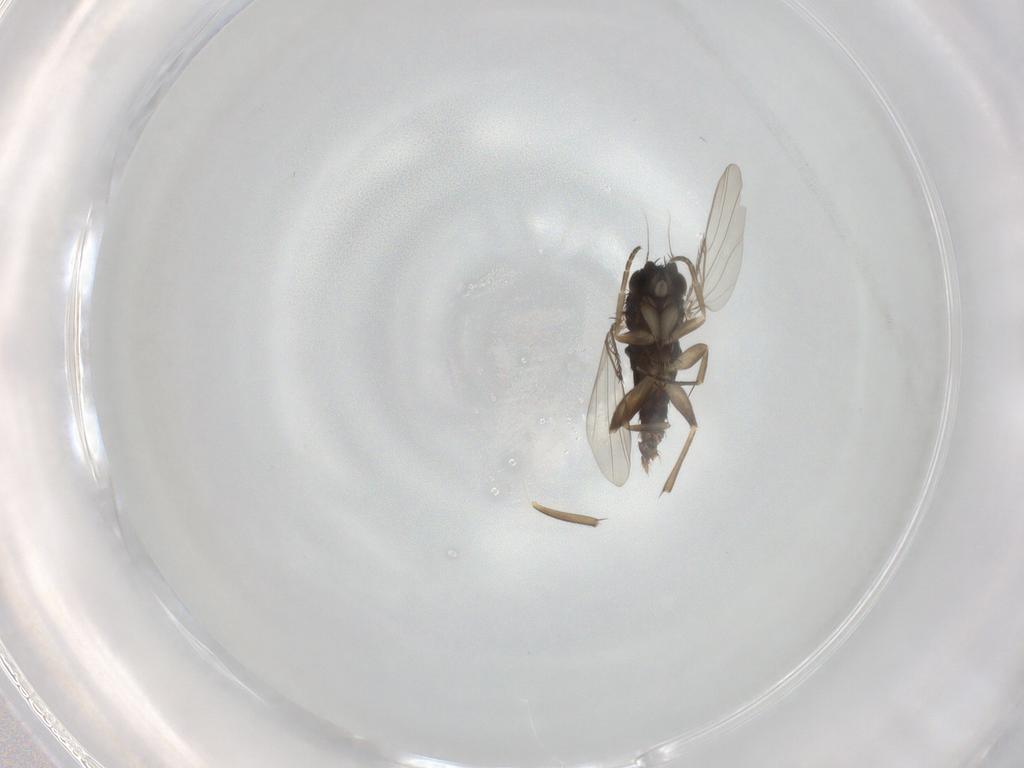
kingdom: Animalia
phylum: Arthropoda
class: Insecta
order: Diptera
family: Phoridae
